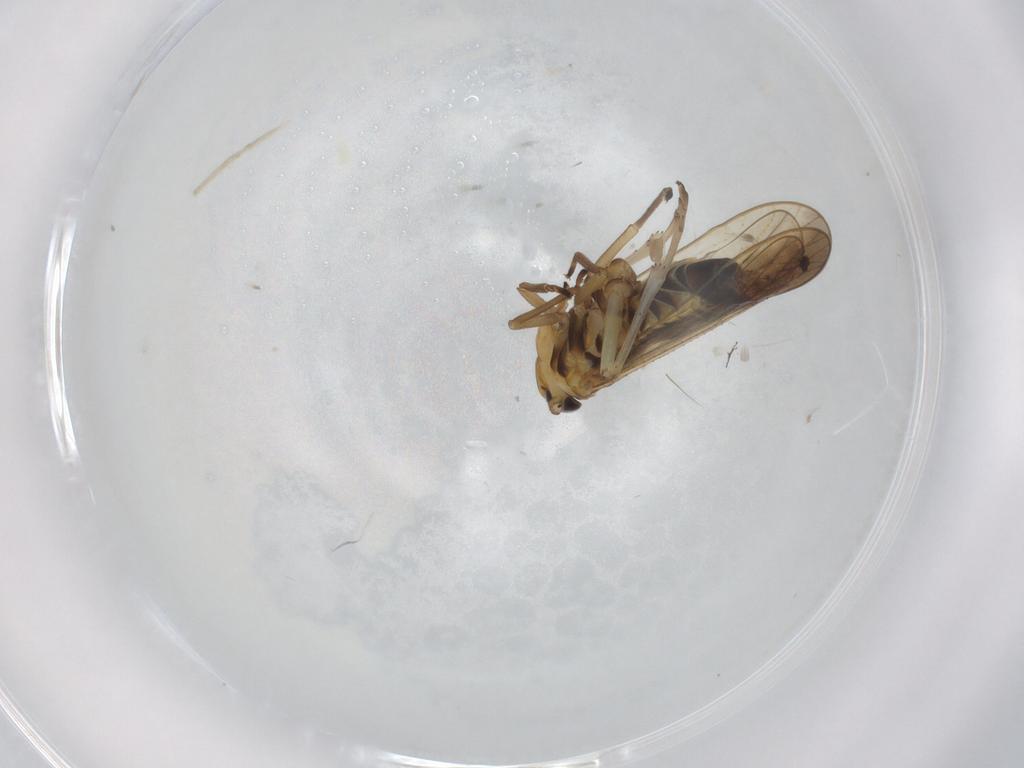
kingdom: Animalia
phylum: Arthropoda
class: Insecta
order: Hemiptera
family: Delphacidae
